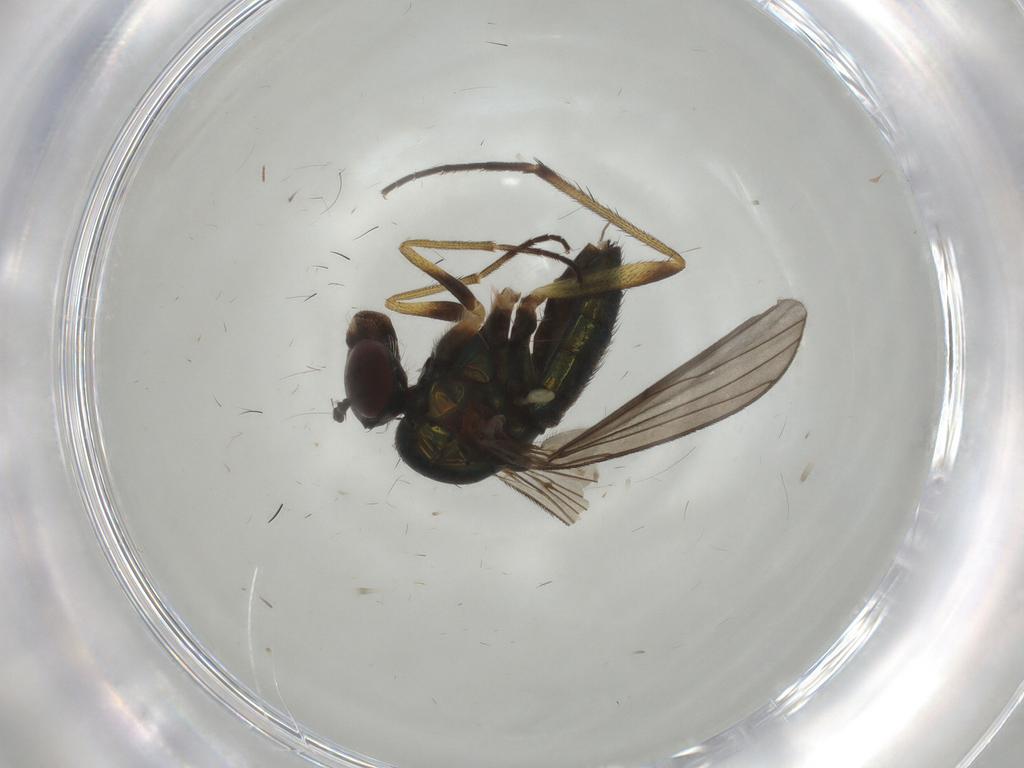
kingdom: Animalia
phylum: Arthropoda
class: Insecta
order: Diptera
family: Dolichopodidae
